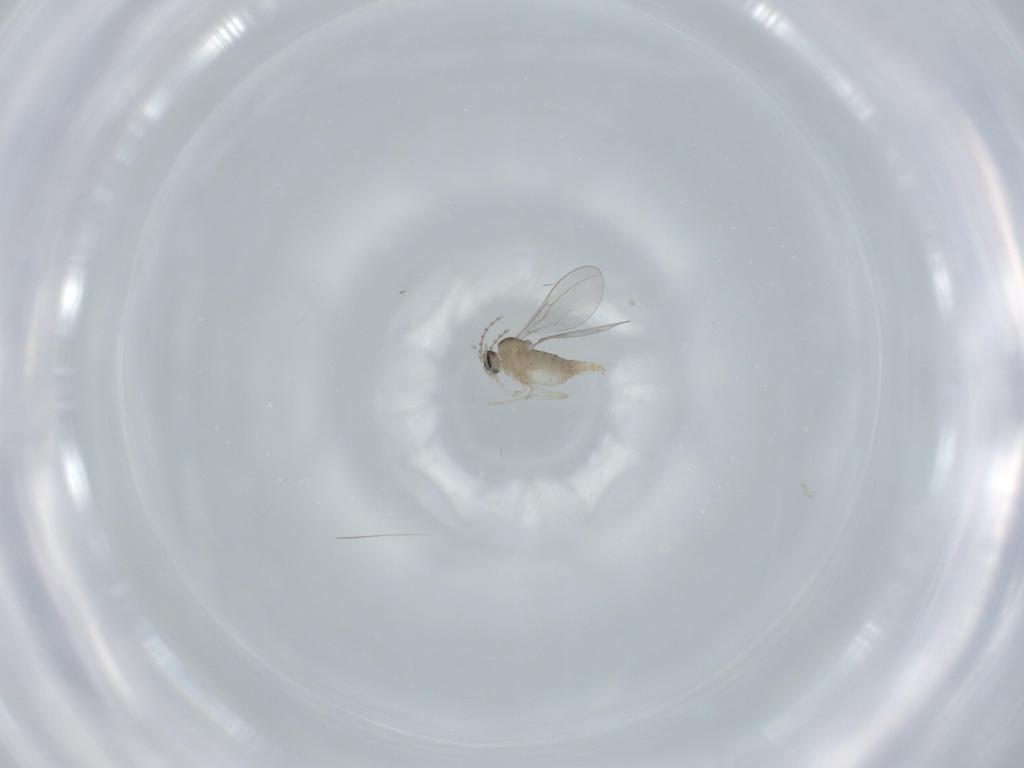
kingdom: Animalia
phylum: Arthropoda
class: Insecta
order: Diptera
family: Cecidomyiidae
